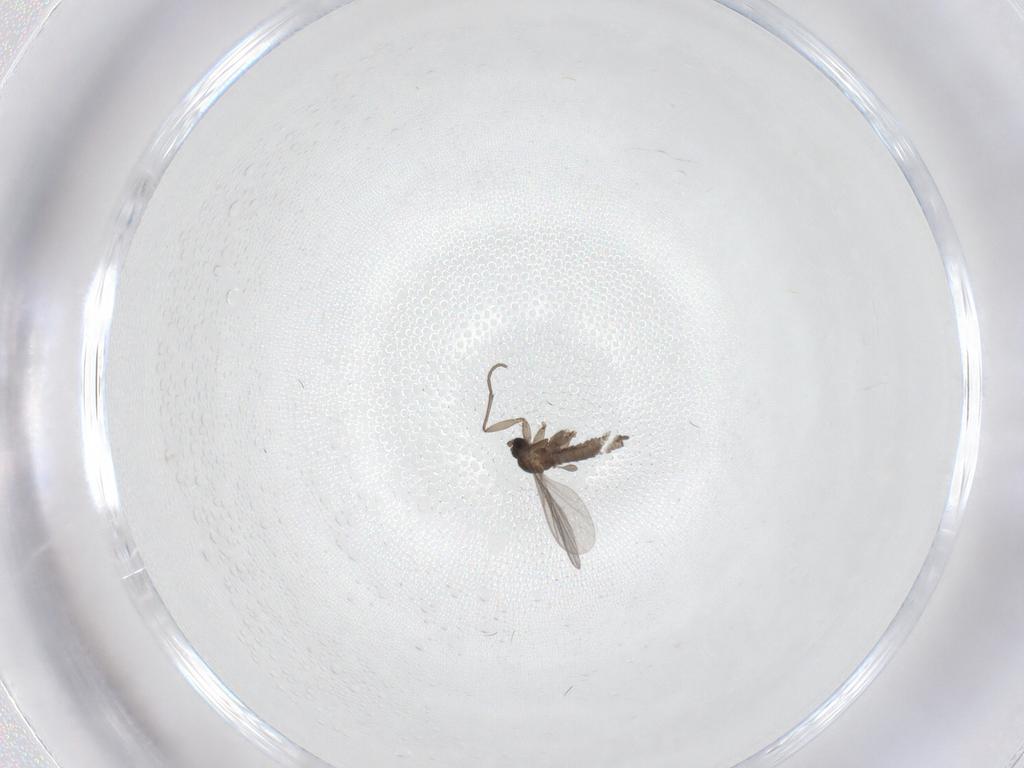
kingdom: Animalia
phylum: Arthropoda
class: Insecta
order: Diptera
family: Sciaridae
